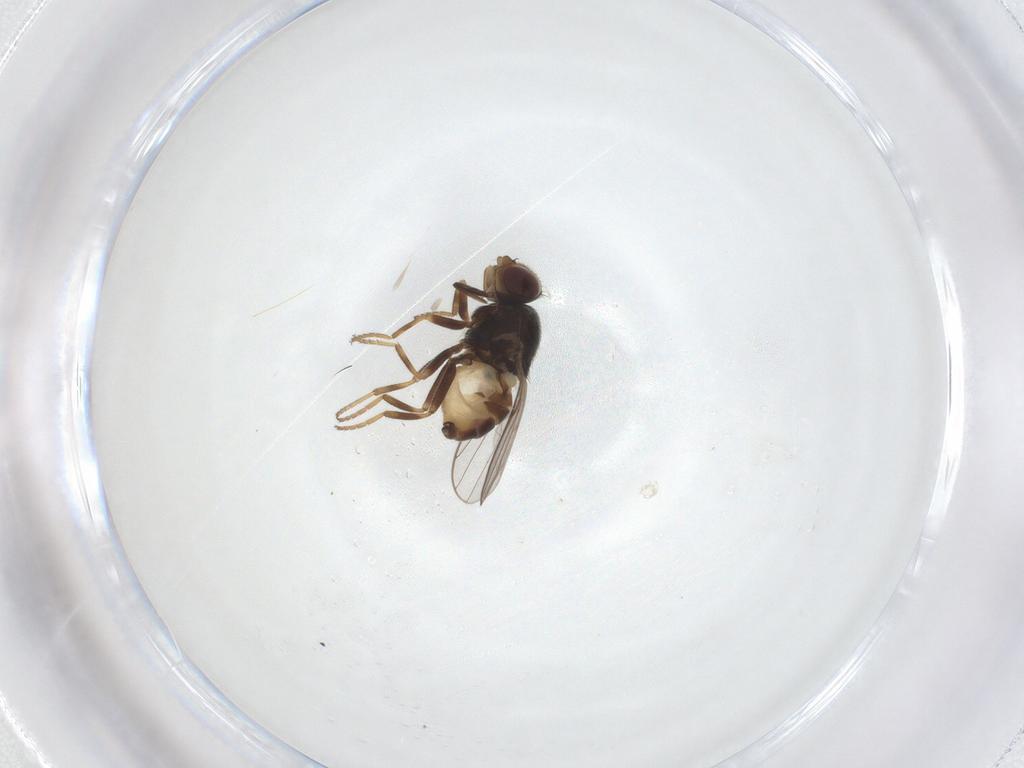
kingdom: Animalia
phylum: Arthropoda
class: Insecta
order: Diptera
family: Chloropidae
